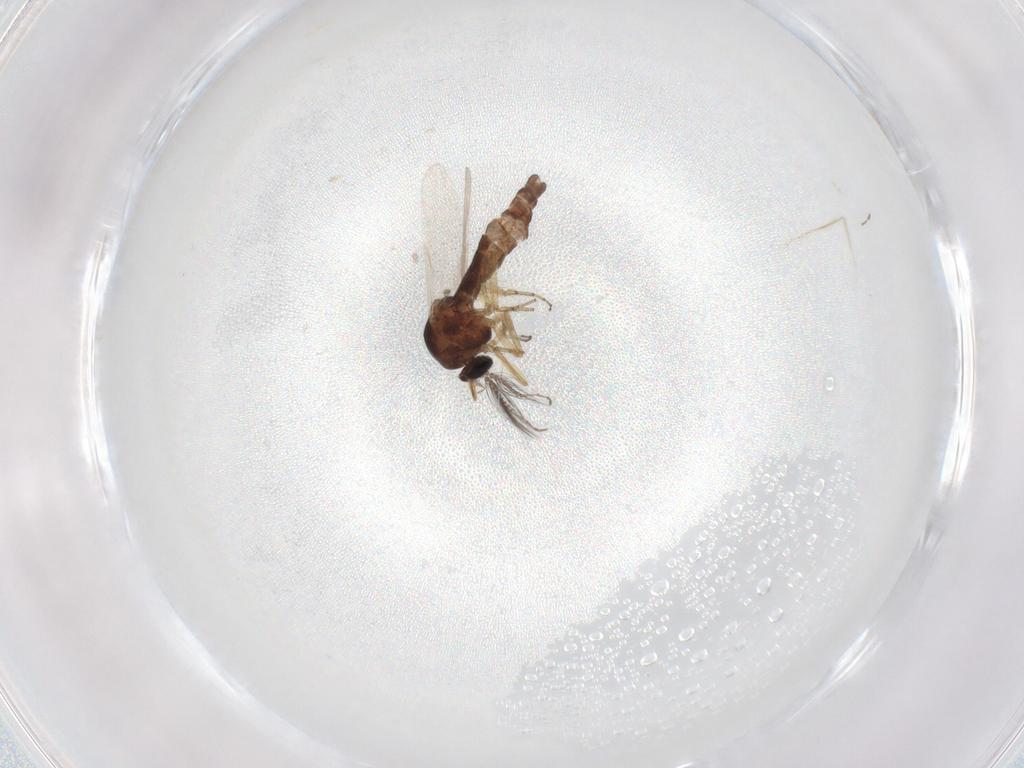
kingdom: Animalia
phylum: Arthropoda
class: Insecta
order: Diptera
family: Ceratopogonidae
